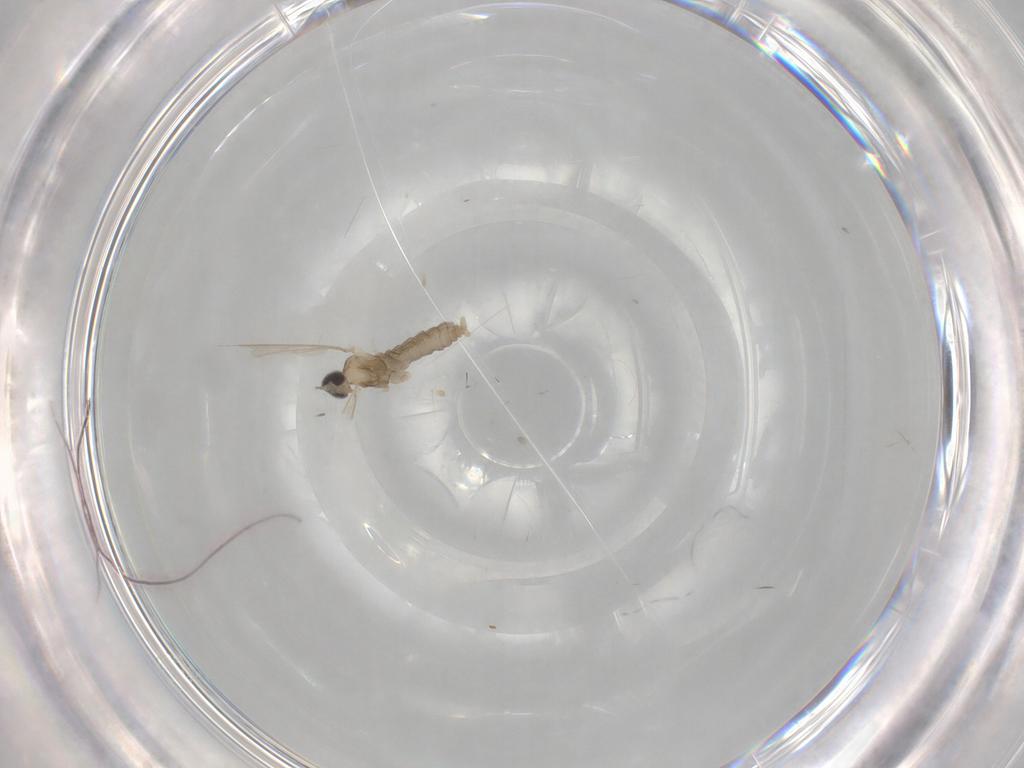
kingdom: Animalia
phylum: Arthropoda
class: Insecta
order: Diptera
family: Cecidomyiidae
